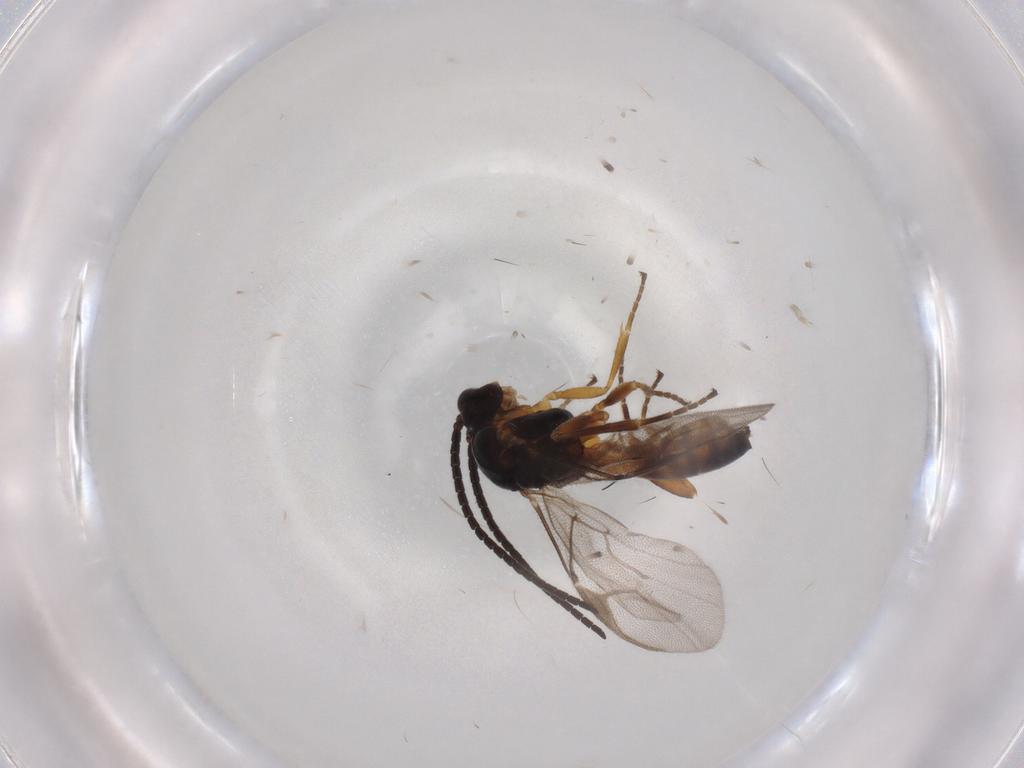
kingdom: Animalia
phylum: Arthropoda
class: Insecta
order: Hymenoptera
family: Braconidae
